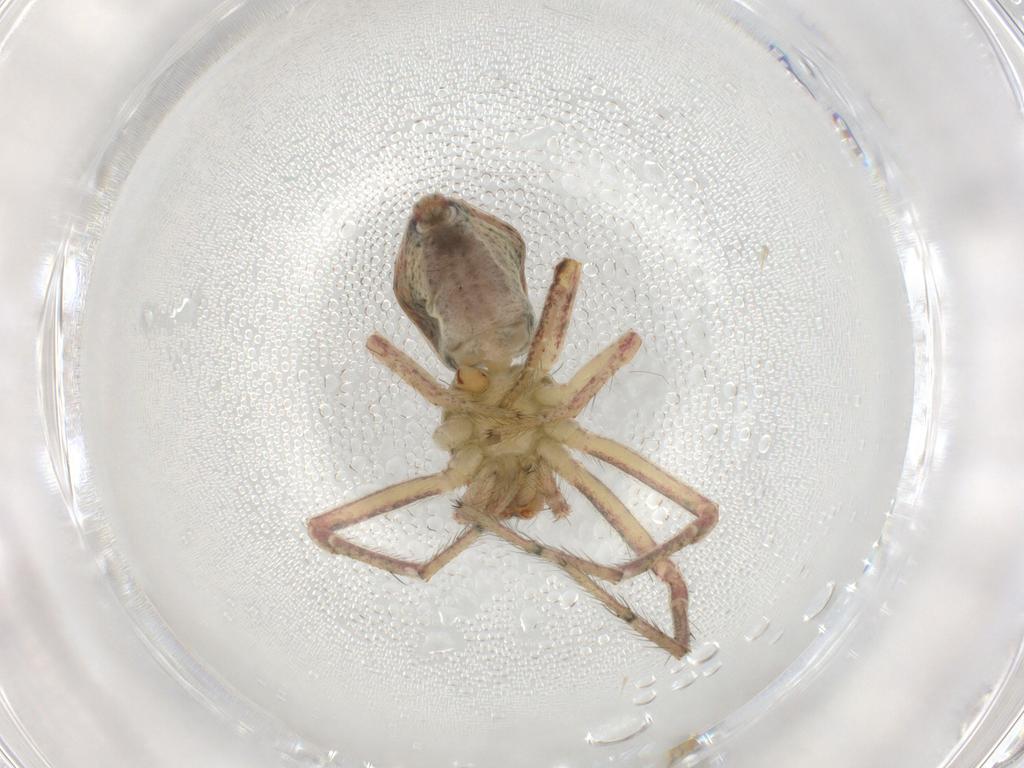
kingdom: Animalia
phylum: Arthropoda
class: Arachnida
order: Araneae
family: Thomisidae
